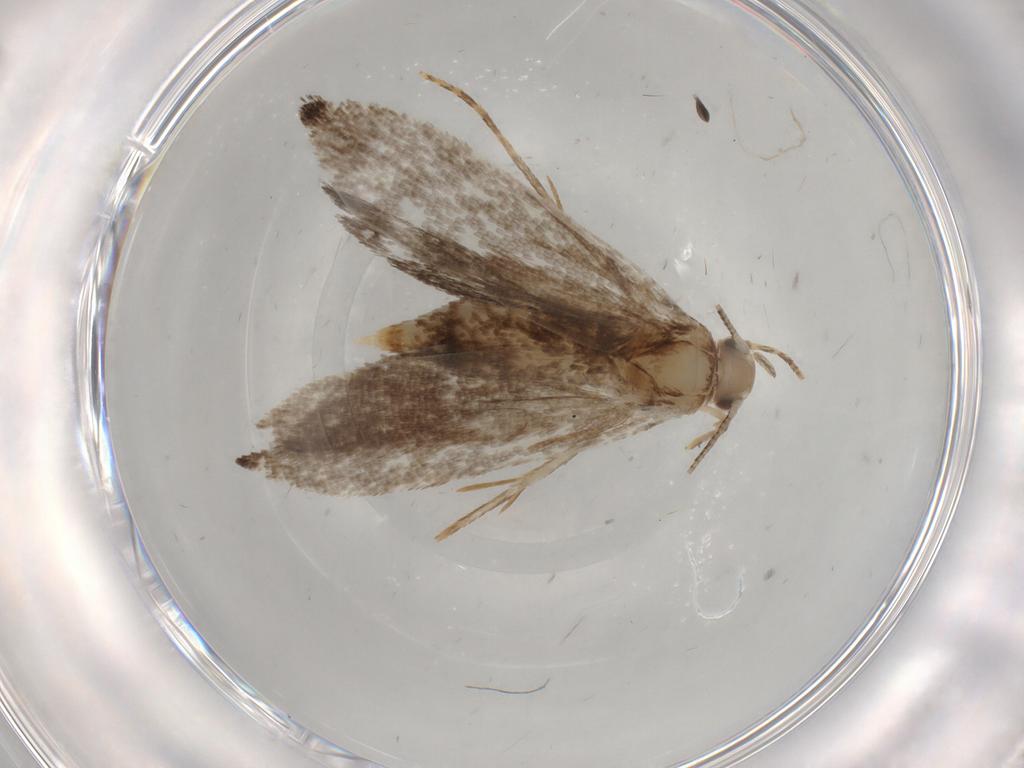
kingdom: Animalia
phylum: Arthropoda
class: Insecta
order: Lepidoptera
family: Tineidae
